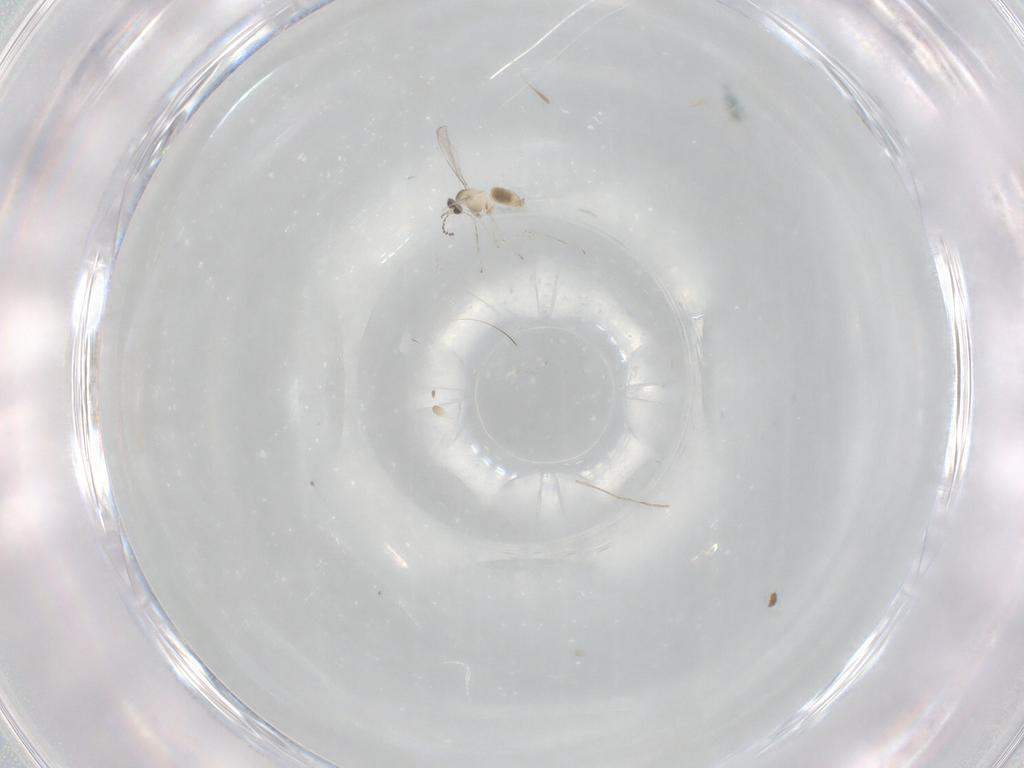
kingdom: Animalia
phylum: Arthropoda
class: Insecta
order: Diptera
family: Cecidomyiidae
